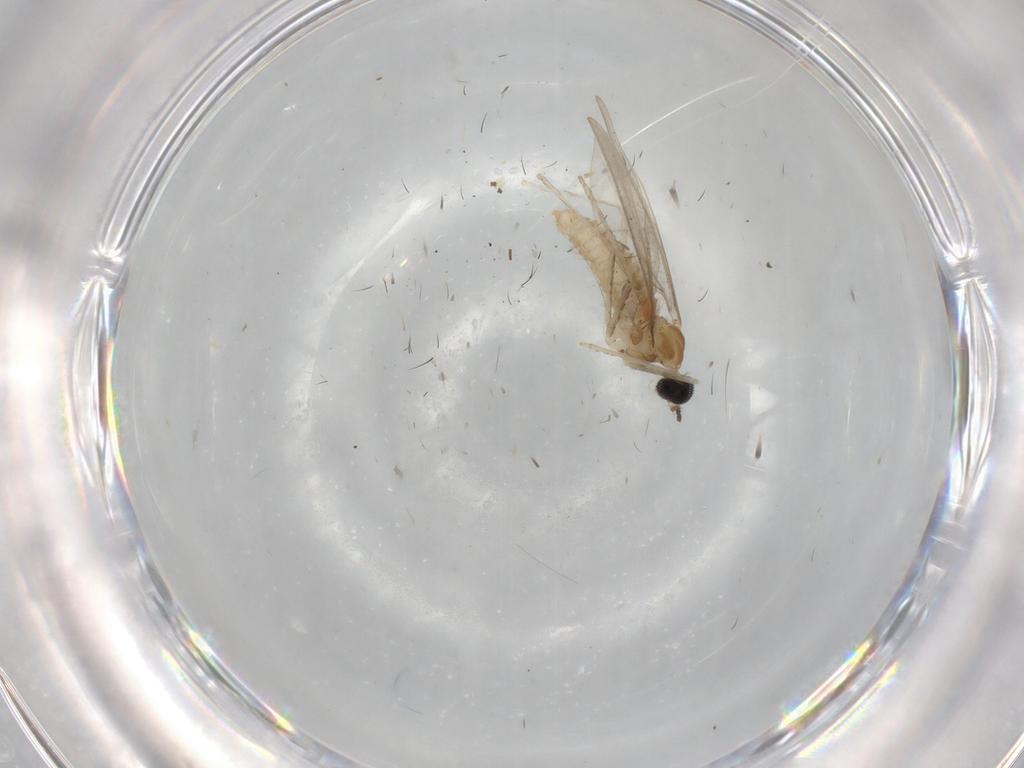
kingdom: Animalia
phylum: Arthropoda
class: Insecta
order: Diptera
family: Cecidomyiidae
